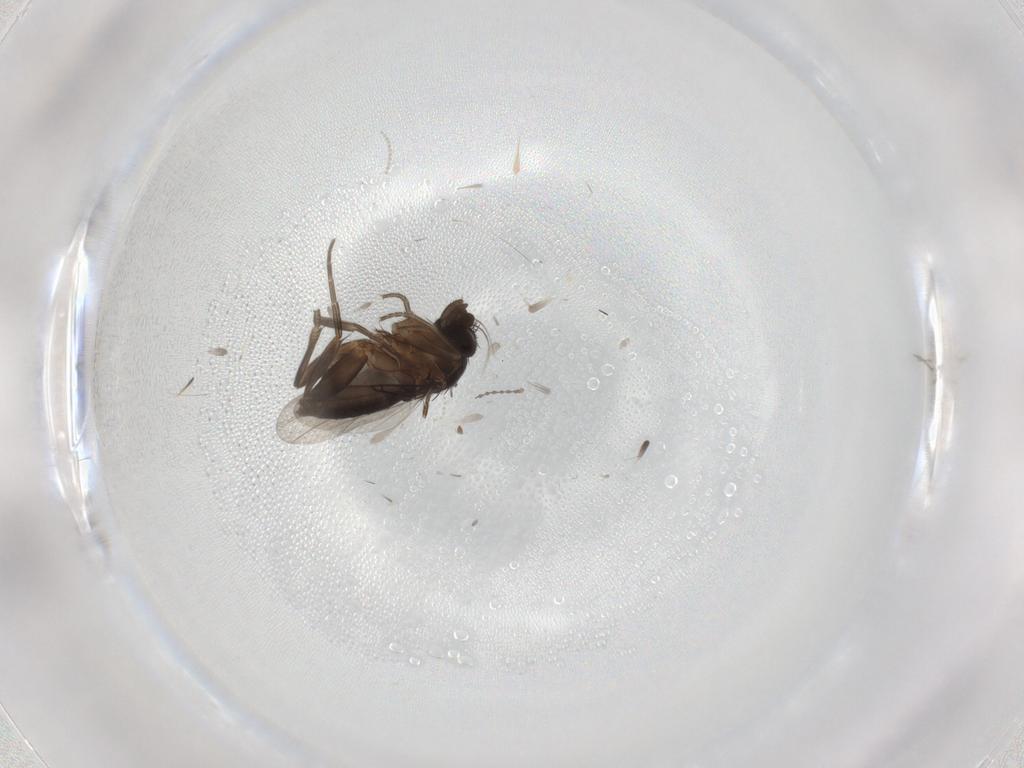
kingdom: Animalia
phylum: Arthropoda
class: Insecta
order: Diptera
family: Phoridae
